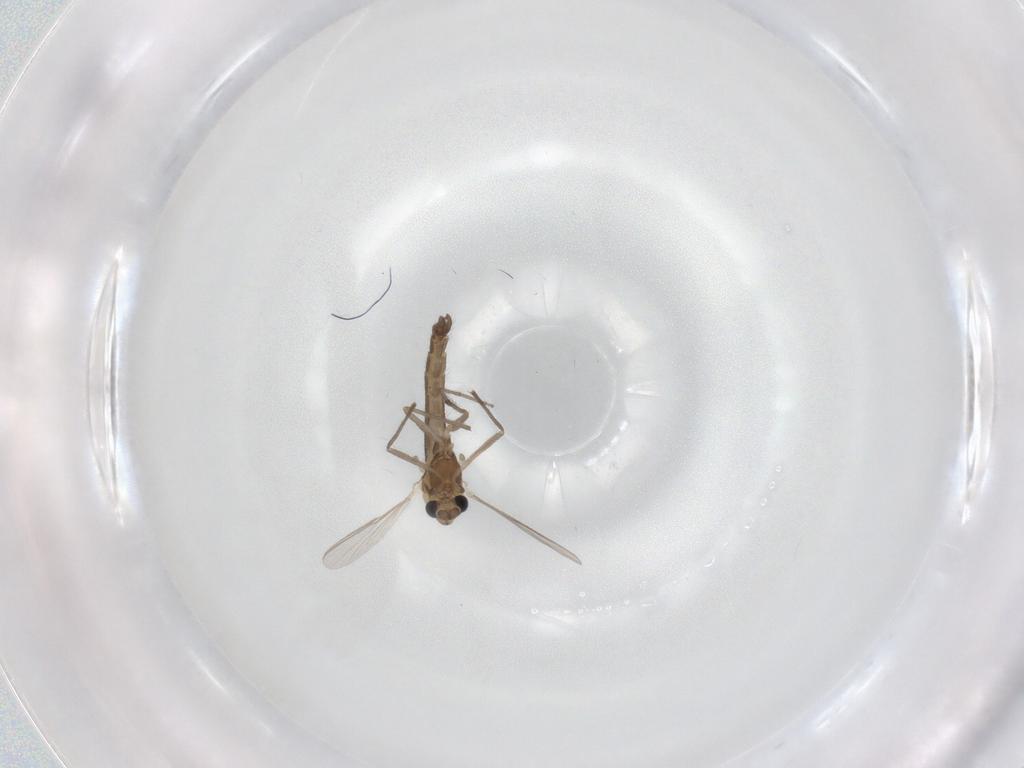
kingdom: Animalia
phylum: Arthropoda
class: Insecta
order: Diptera
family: Chironomidae
